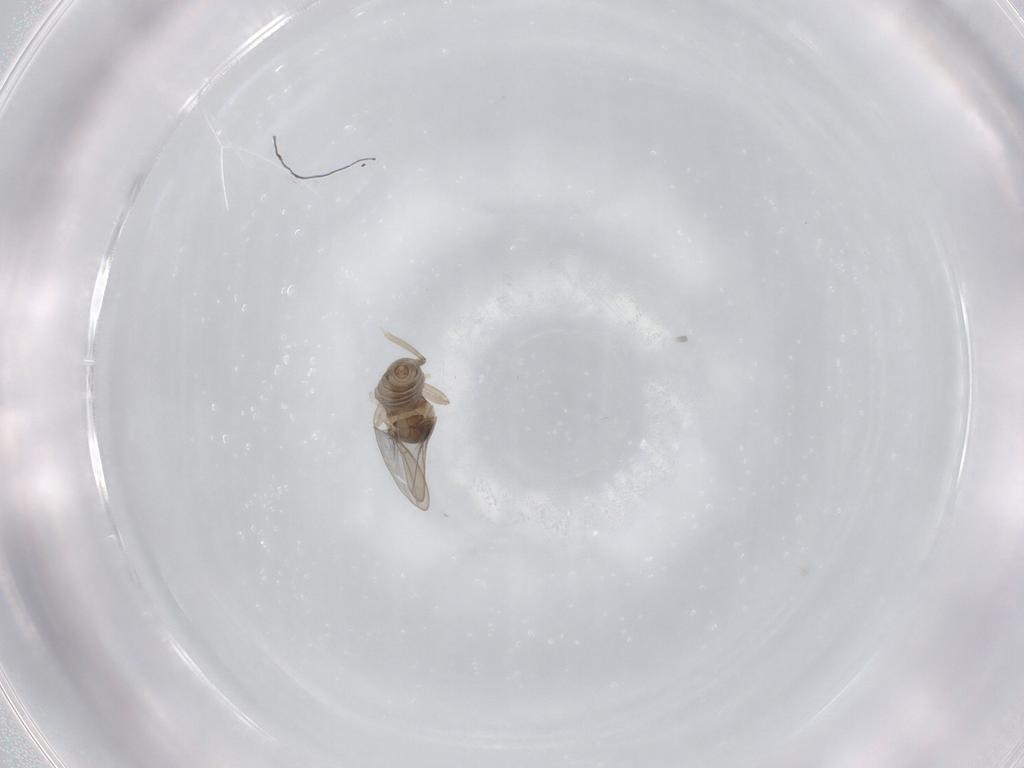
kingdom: Animalia
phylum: Arthropoda
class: Insecta
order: Diptera
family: Cecidomyiidae
